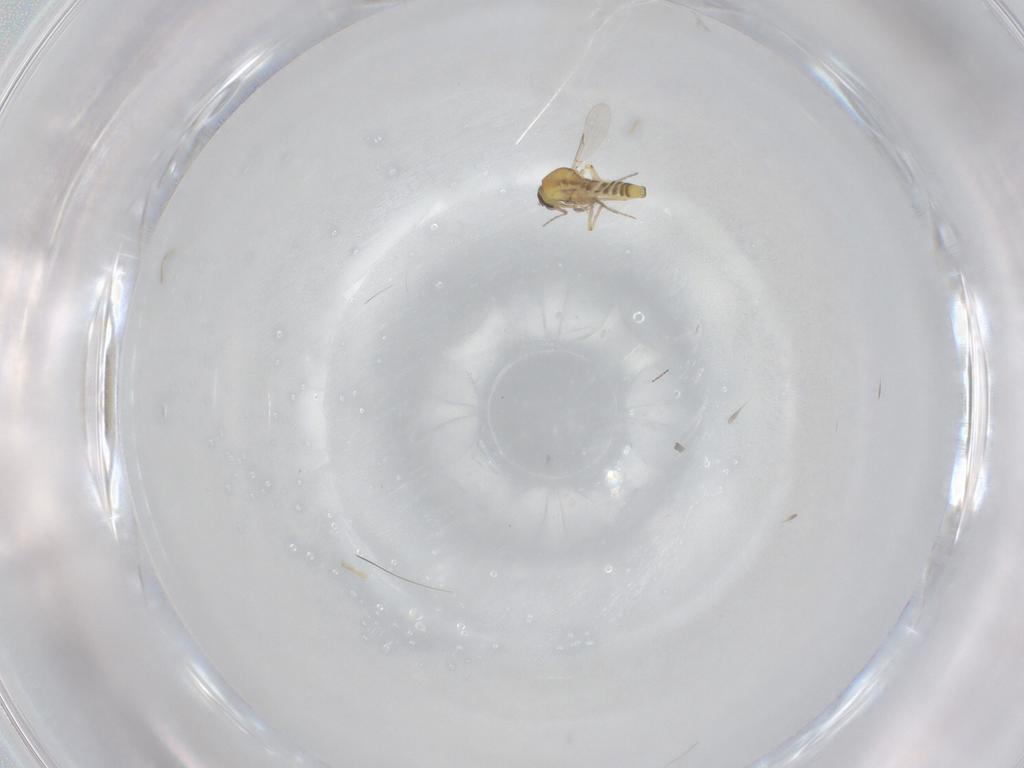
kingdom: Animalia
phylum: Arthropoda
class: Insecta
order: Diptera
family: Ceratopogonidae
